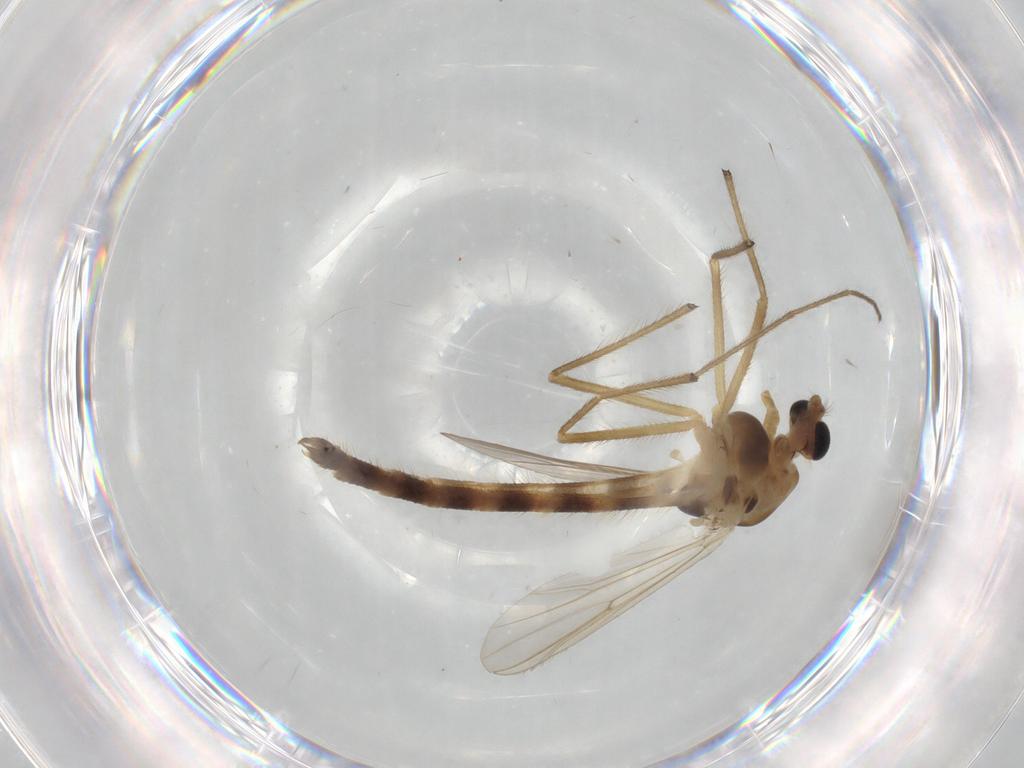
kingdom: Animalia
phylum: Arthropoda
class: Insecta
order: Diptera
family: Chironomidae
